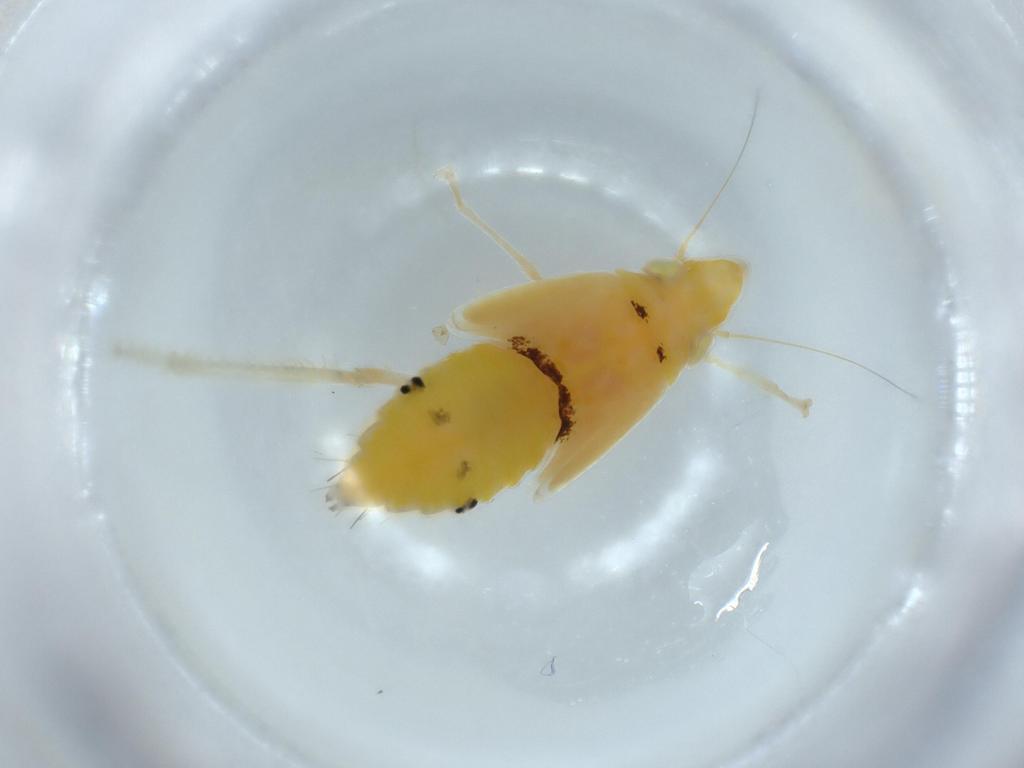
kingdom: Animalia
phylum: Arthropoda
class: Insecta
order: Hemiptera
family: Cicadellidae
